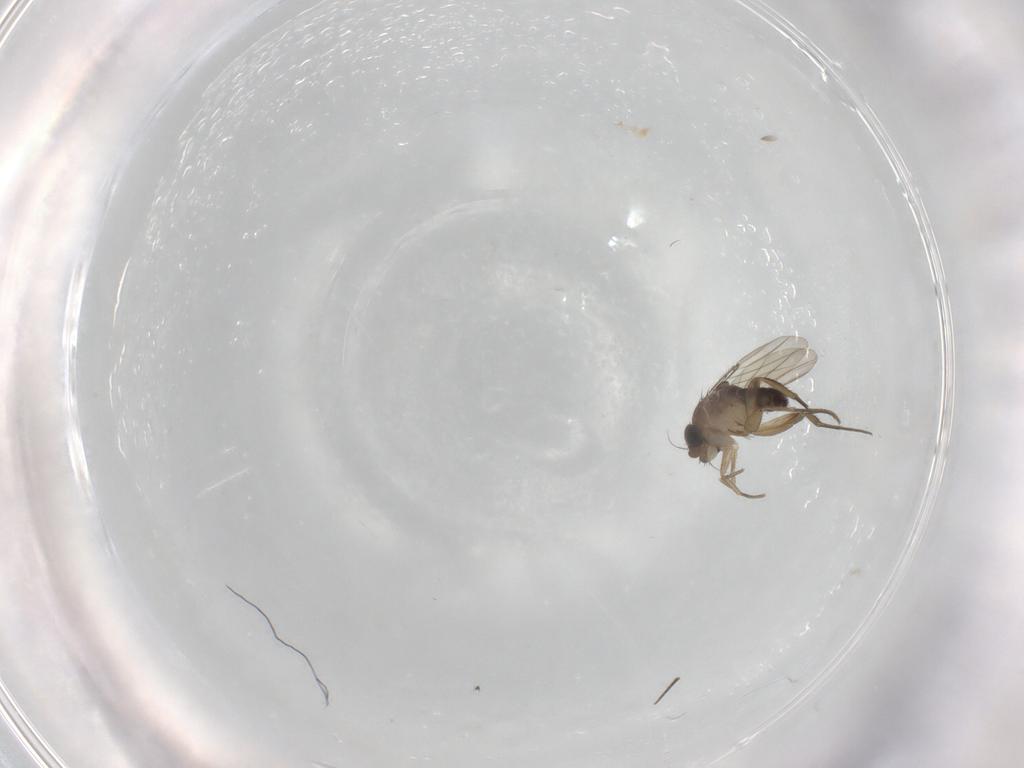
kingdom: Animalia
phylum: Arthropoda
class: Insecta
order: Diptera
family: Phoridae
